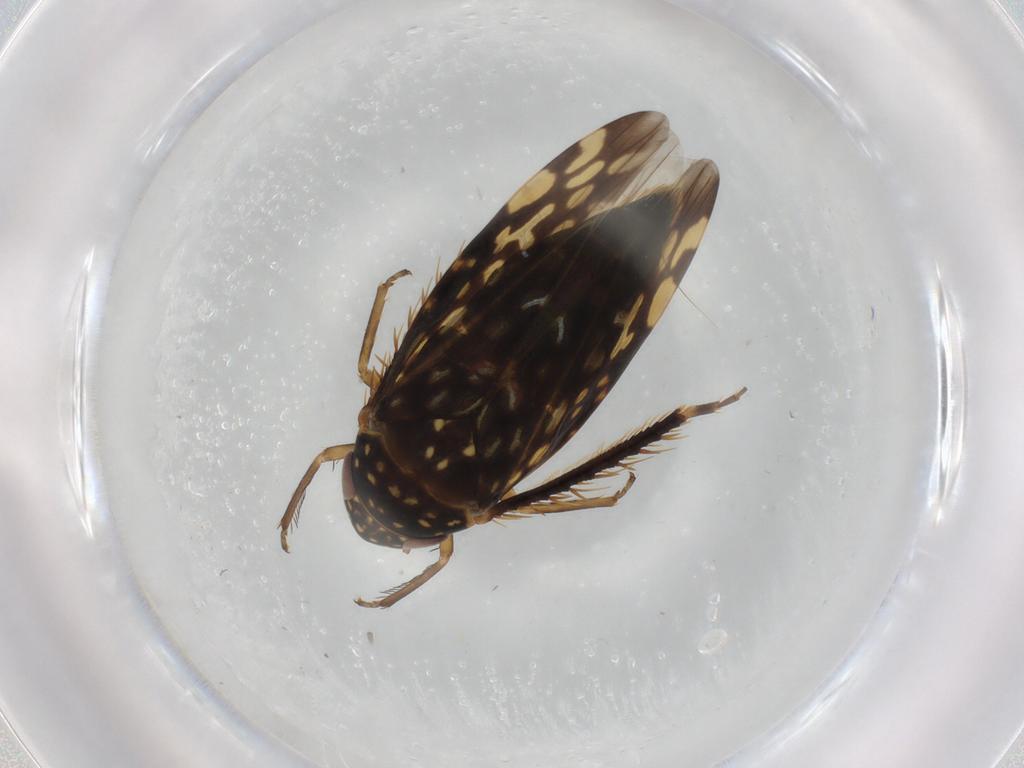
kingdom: Animalia
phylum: Arthropoda
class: Insecta
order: Hemiptera
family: Cicadellidae
